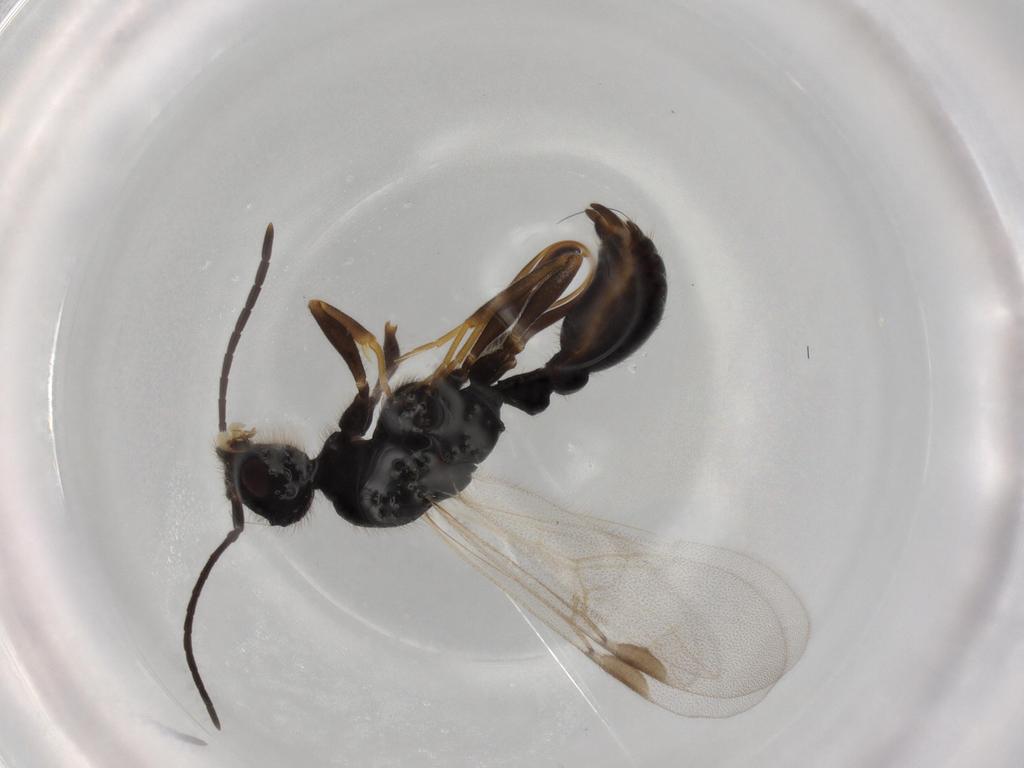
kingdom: Animalia
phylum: Arthropoda
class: Insecta
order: Hymenoptera
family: Formicidae
